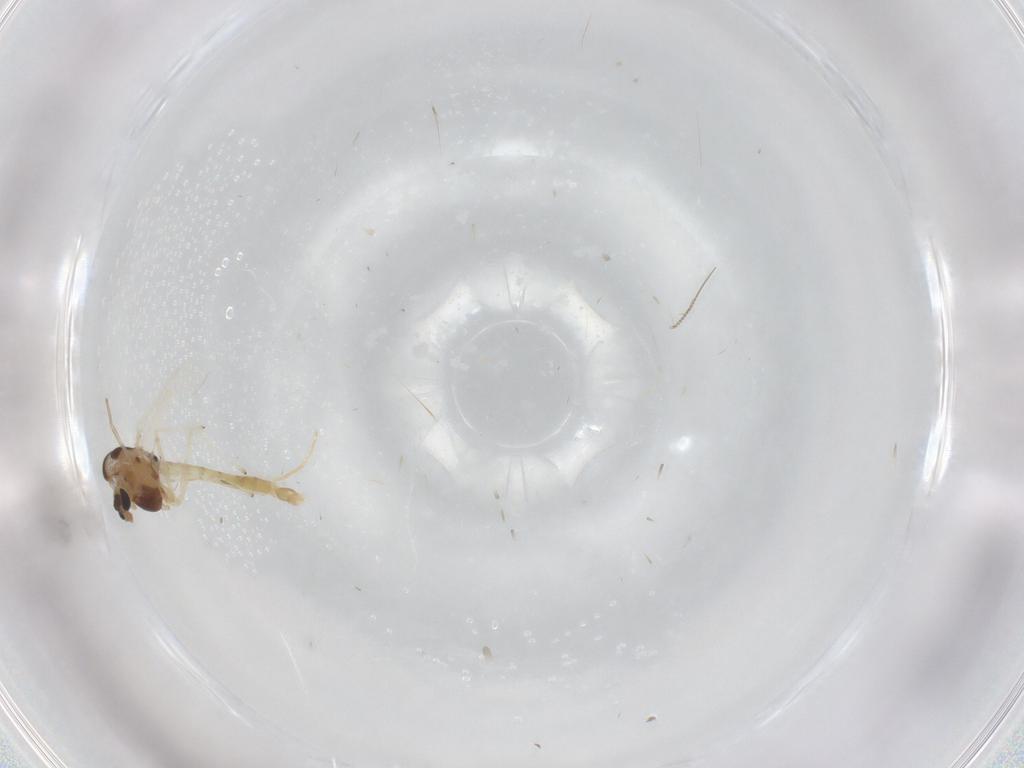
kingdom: Animalia
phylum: Arthropoda
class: Insecta
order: Diptera
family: Chironomidae
